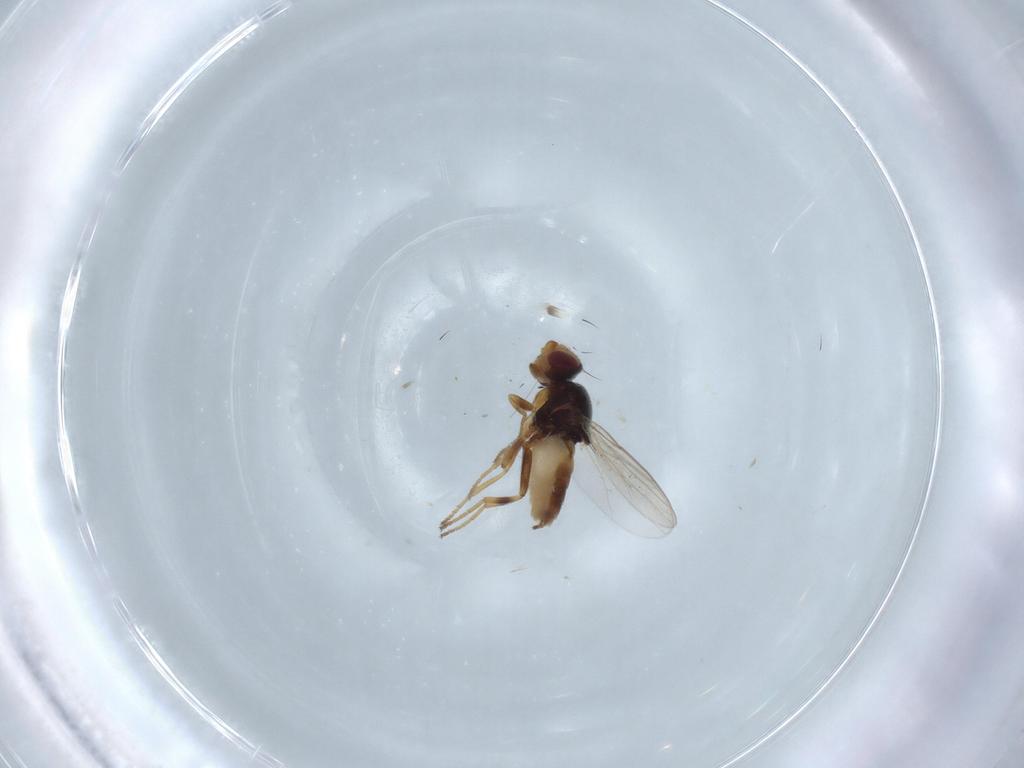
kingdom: Animalia
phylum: Arthropoda
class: Insecta
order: Diptera
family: Chloropidae
